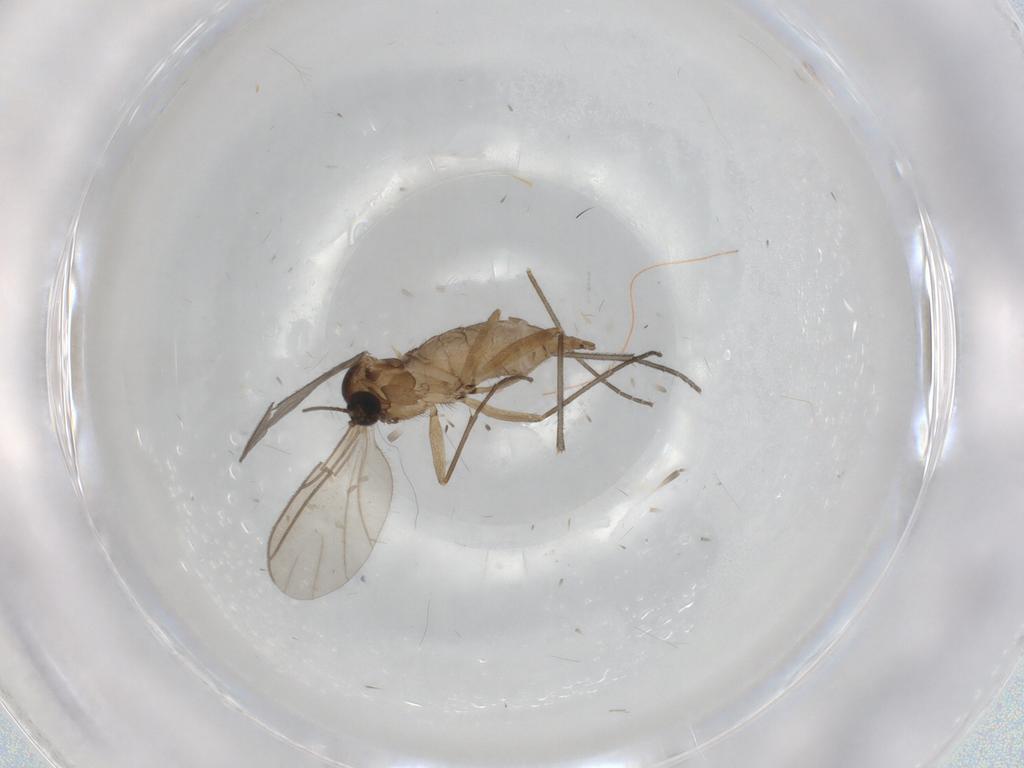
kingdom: Animalia
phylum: Arthropoda
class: Insecta
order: Diptera
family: Sciaridae
